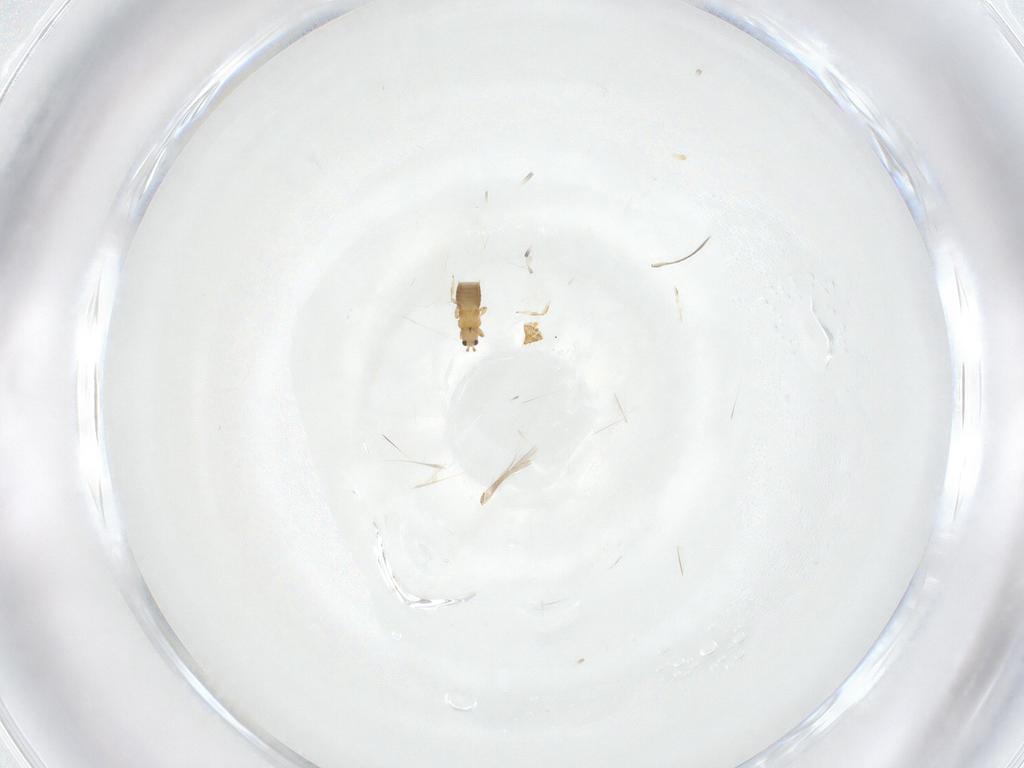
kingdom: Animalia
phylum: Arthropoda
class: Insecta
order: Thysanoptera
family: Thripidae
